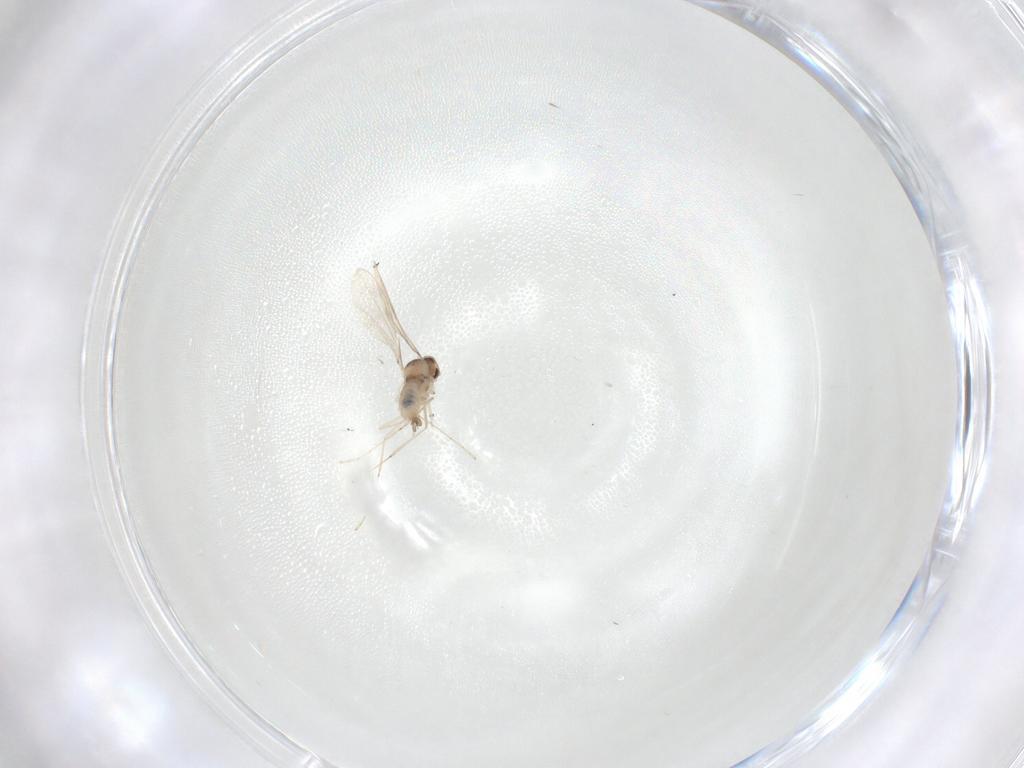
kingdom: Animalia
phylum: Arthropoda
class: Insecta
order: Diptera
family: Cecidomyiidae
